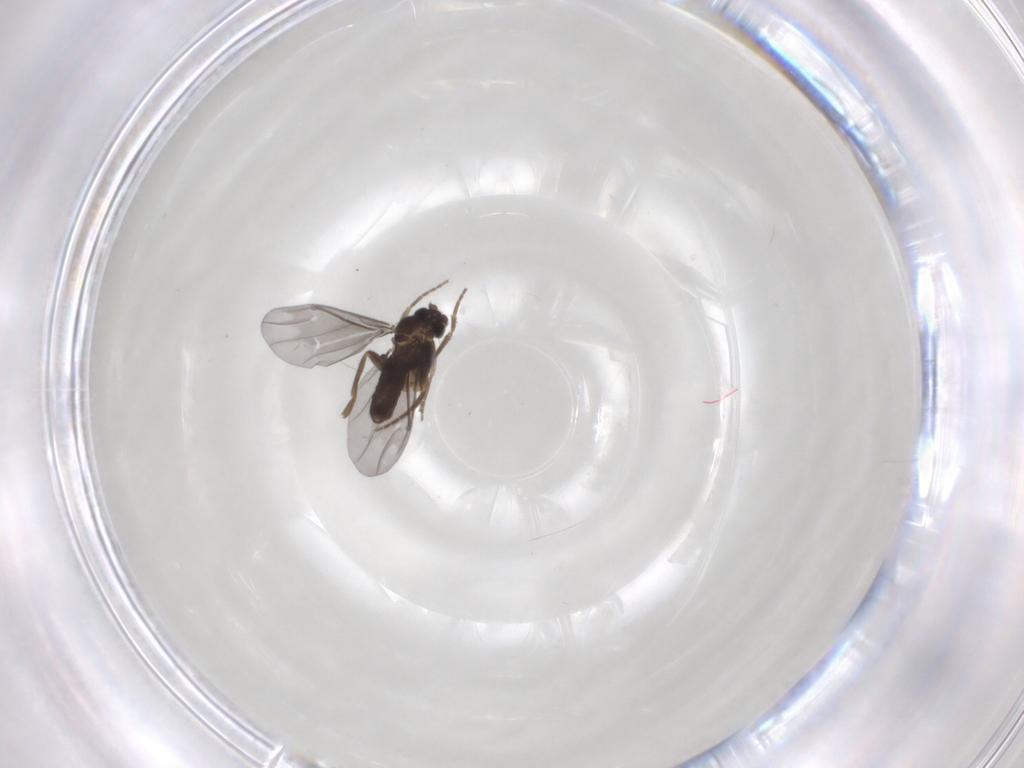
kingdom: Animalia
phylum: Arthropoda
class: Insecta
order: Diptera
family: Phoridae
